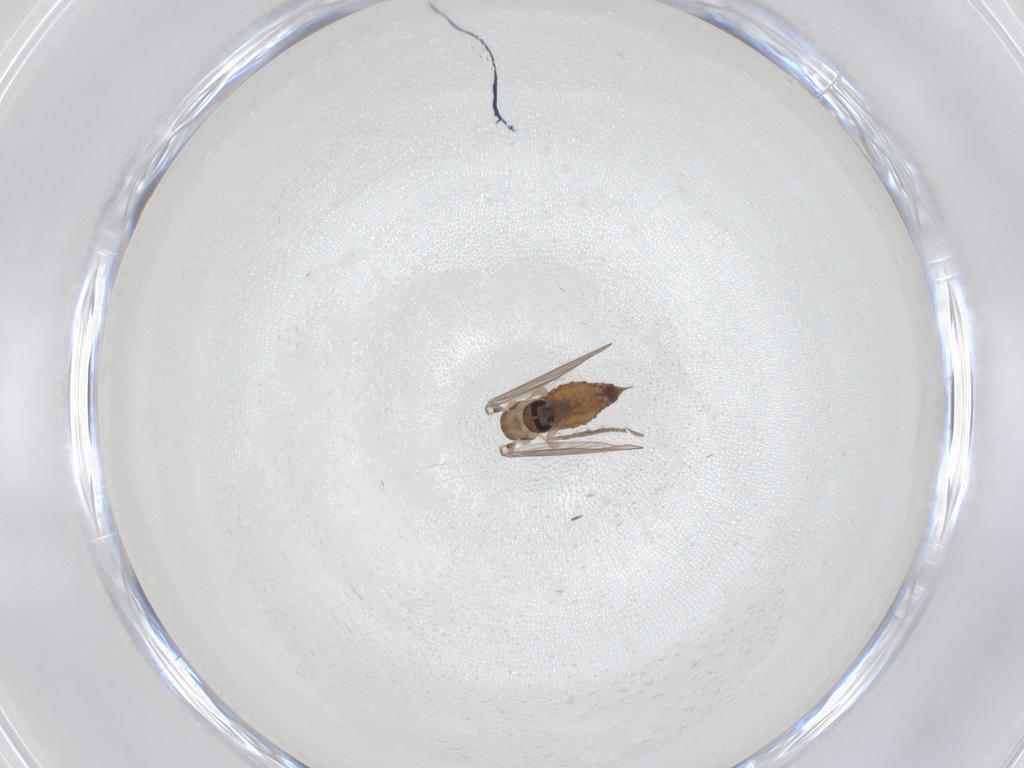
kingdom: Animalia
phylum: Arthropoda
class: Insecta
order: Diptera
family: Psychodidae
